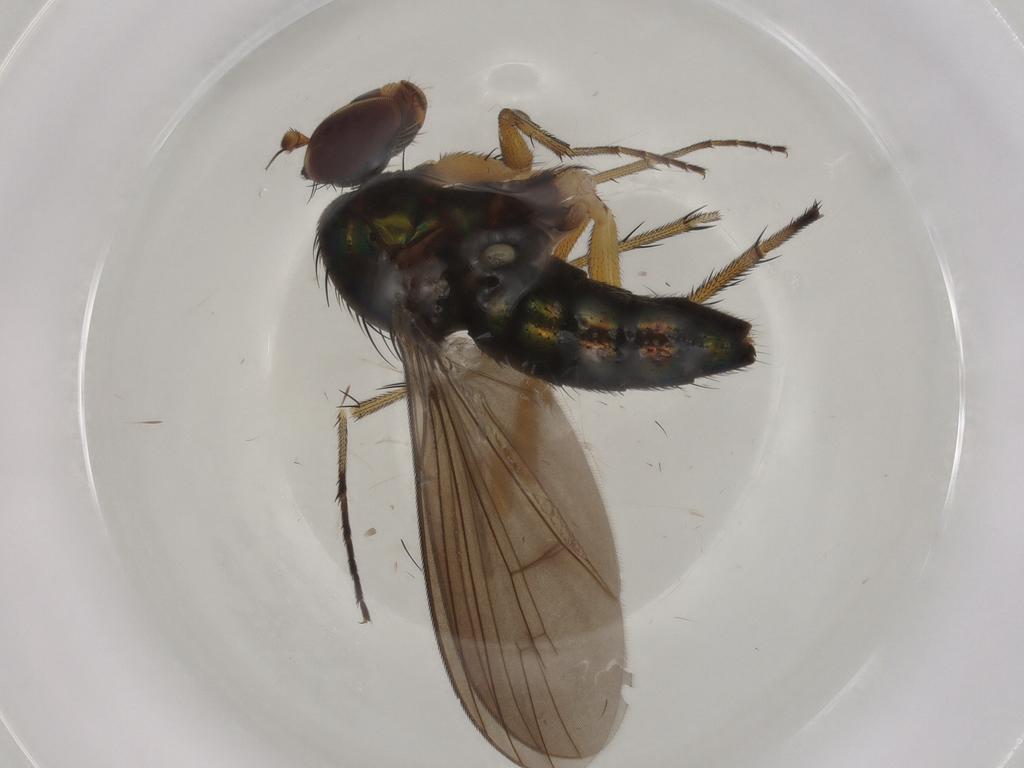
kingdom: Animalia
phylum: Arthropoda
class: Insecta
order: Diptera
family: Dolichopodidae
